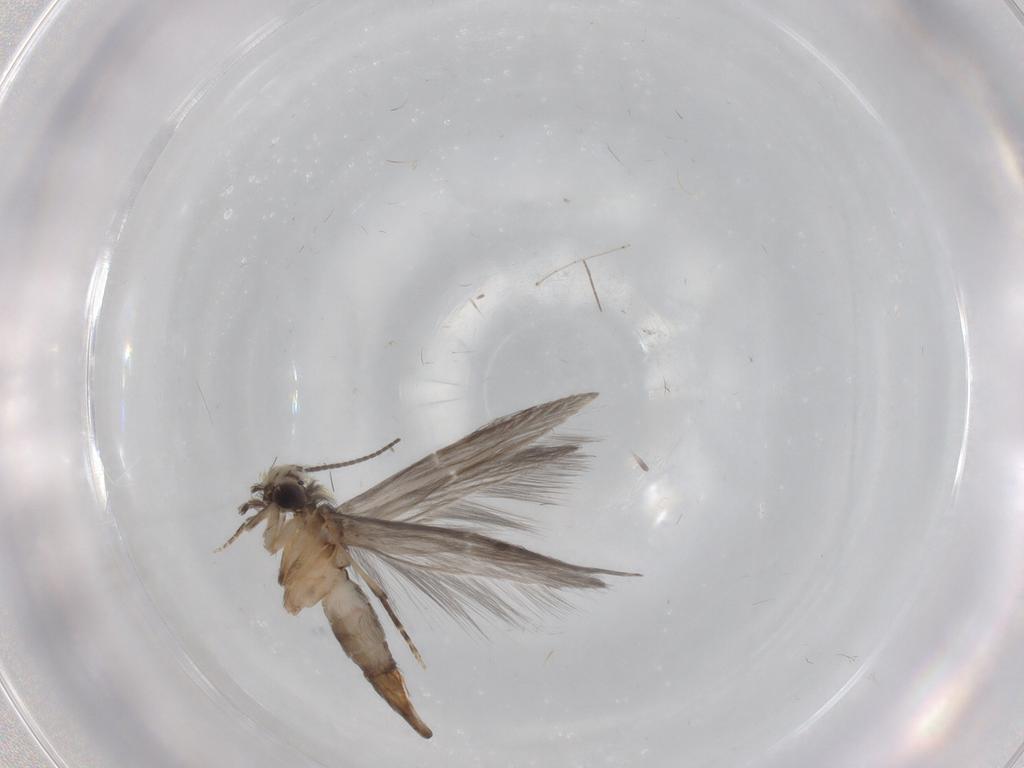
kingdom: Animalia
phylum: Arthropoda
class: Insecta
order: Trichoptera
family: Hydroptilidae
